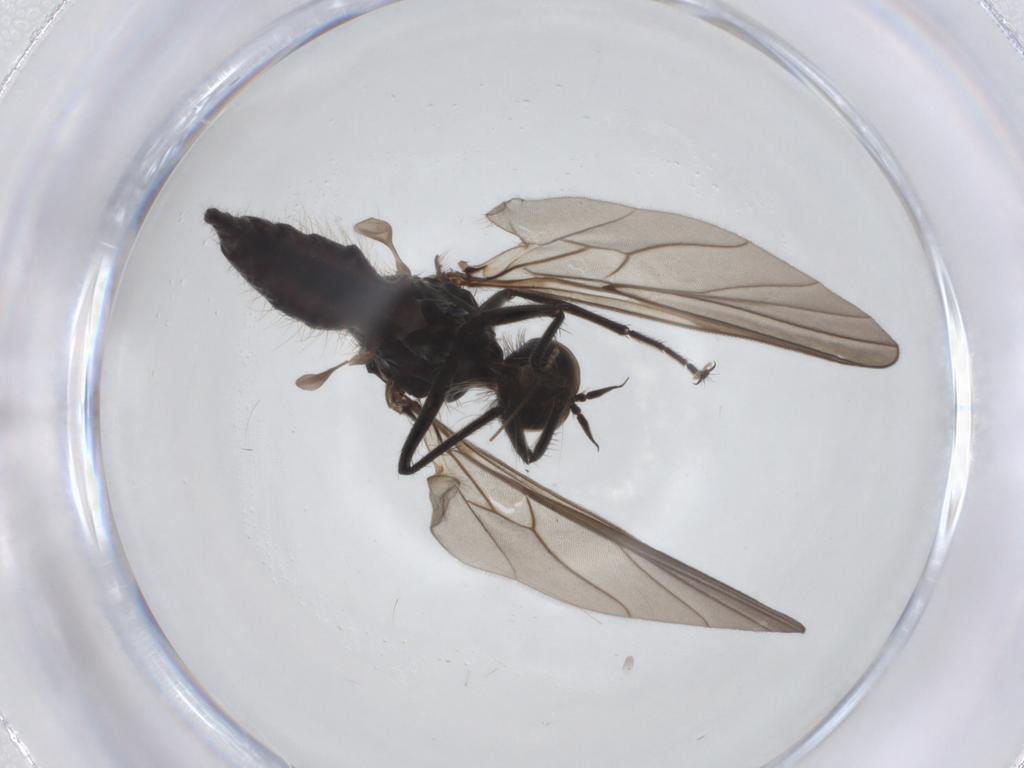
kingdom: Animalia
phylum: Arthropoda
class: Insecta
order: Diptera
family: Hybotidae
